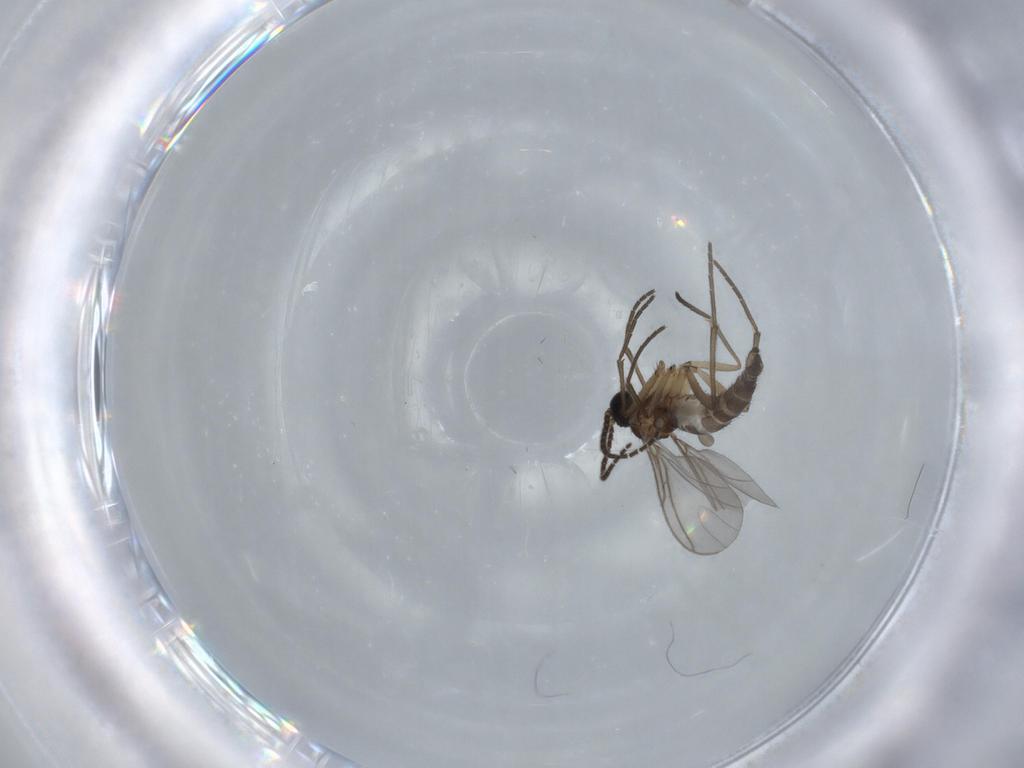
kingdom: Animalia
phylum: Arthropoda
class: Insecta
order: Diptera
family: Sciaridae
